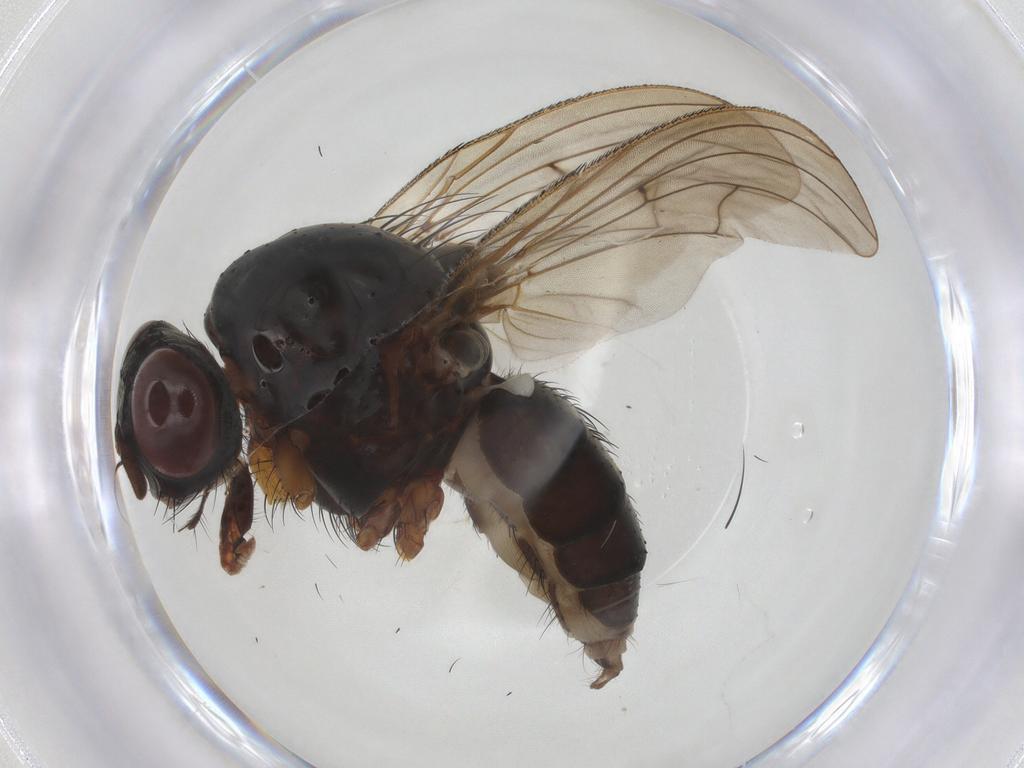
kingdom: Animalia
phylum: Arthropoda
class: Insecta
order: Diptera
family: Anthomyiidae
